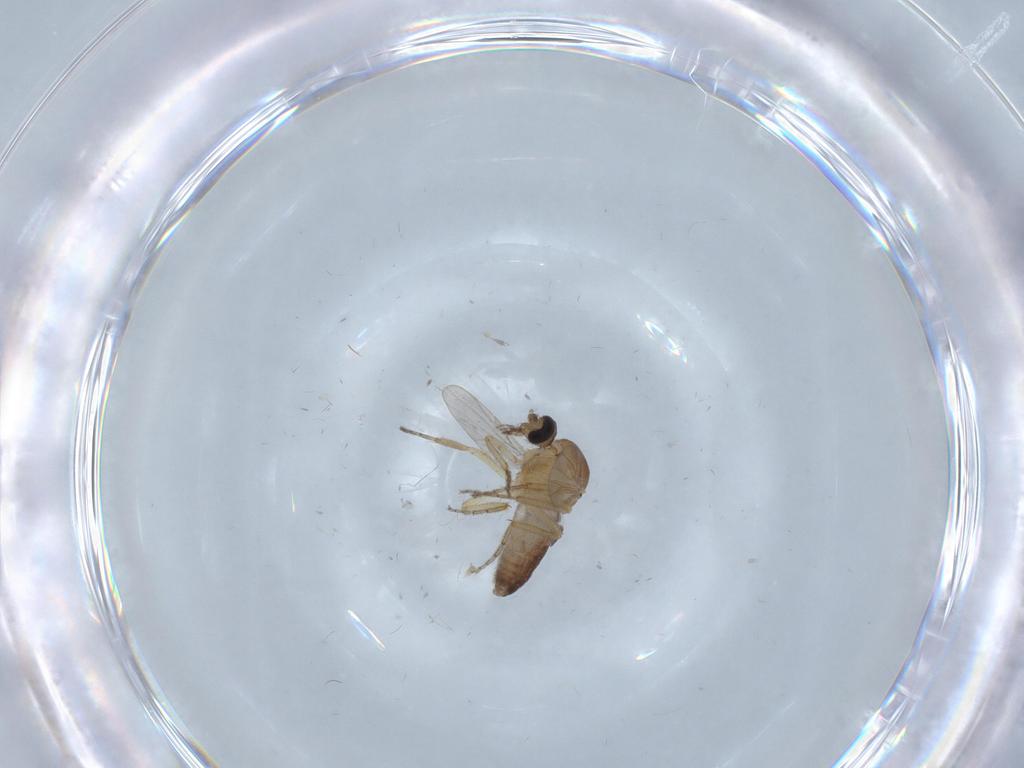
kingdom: Animalia
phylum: Arthropoda
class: Insecta
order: Diptera
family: Ceratopogonidae
